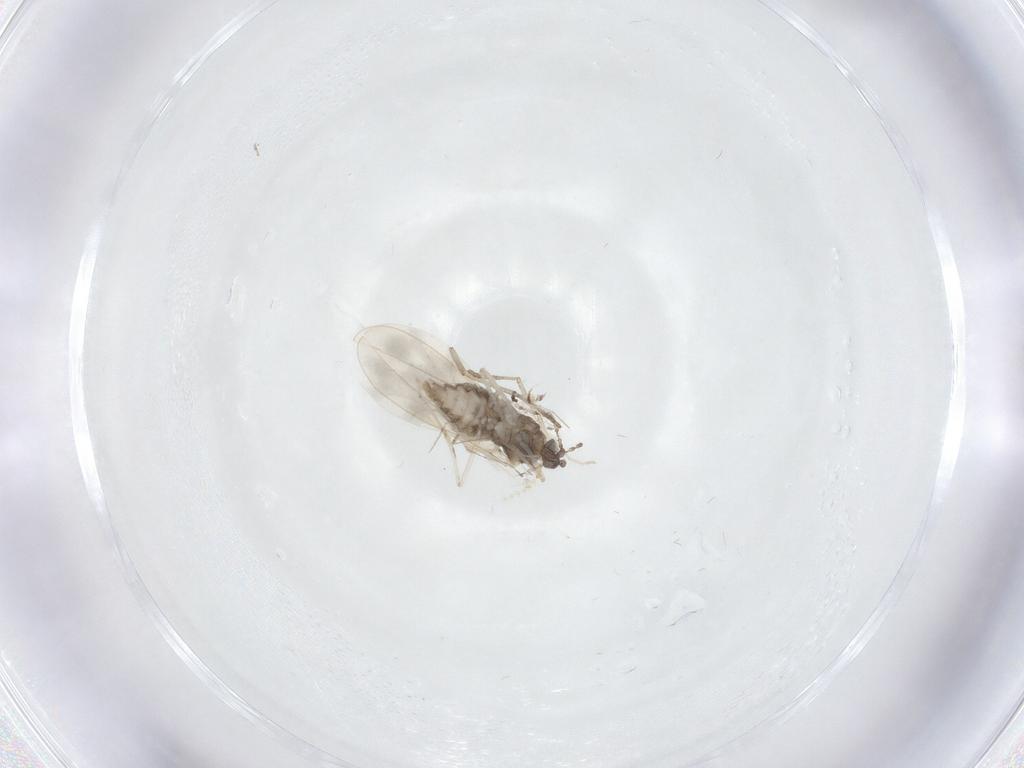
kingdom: Animalia
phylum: Arthropoda
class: Insecta
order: Diptera
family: Cecidomyiidae
